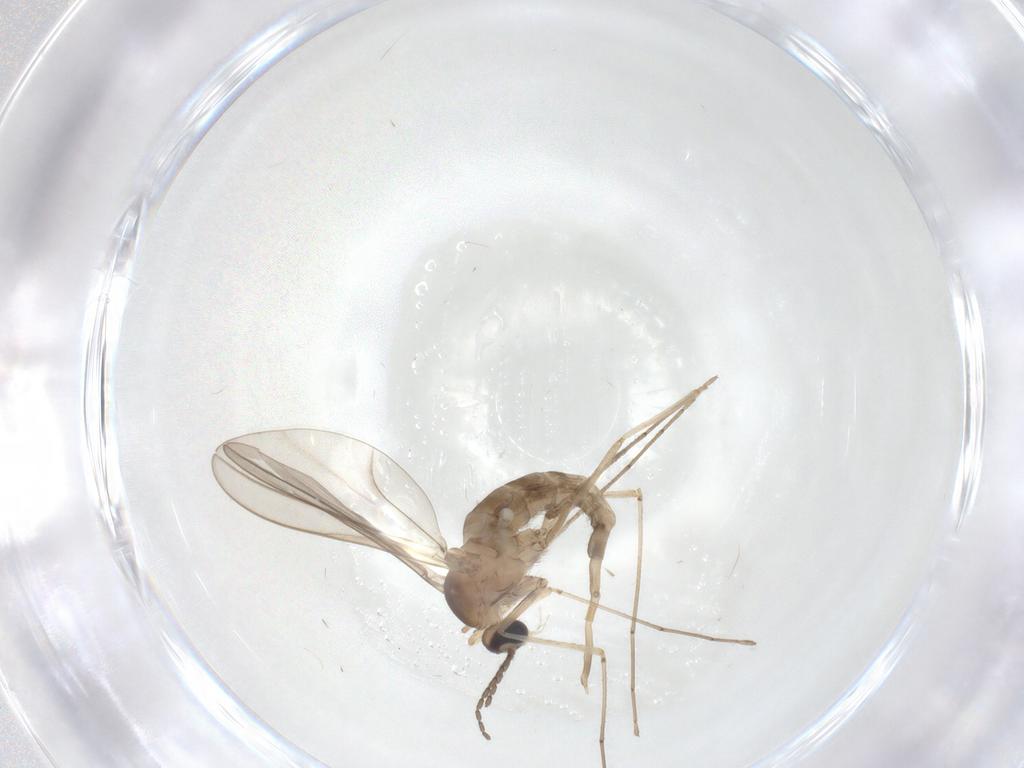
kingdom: Animalia
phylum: Arthropoda
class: Insecta
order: Diptera
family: Cecidomyiidae
